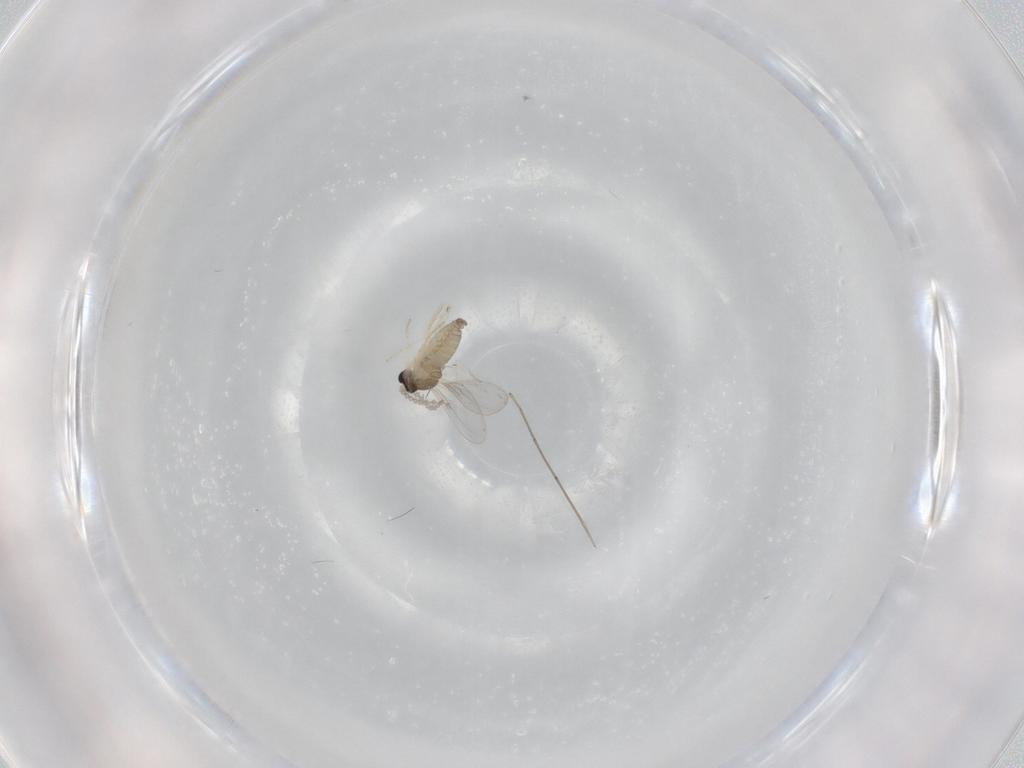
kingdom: Animalia
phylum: Arthropoda
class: Insecta
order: Diptera
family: Cecidomyiidae
